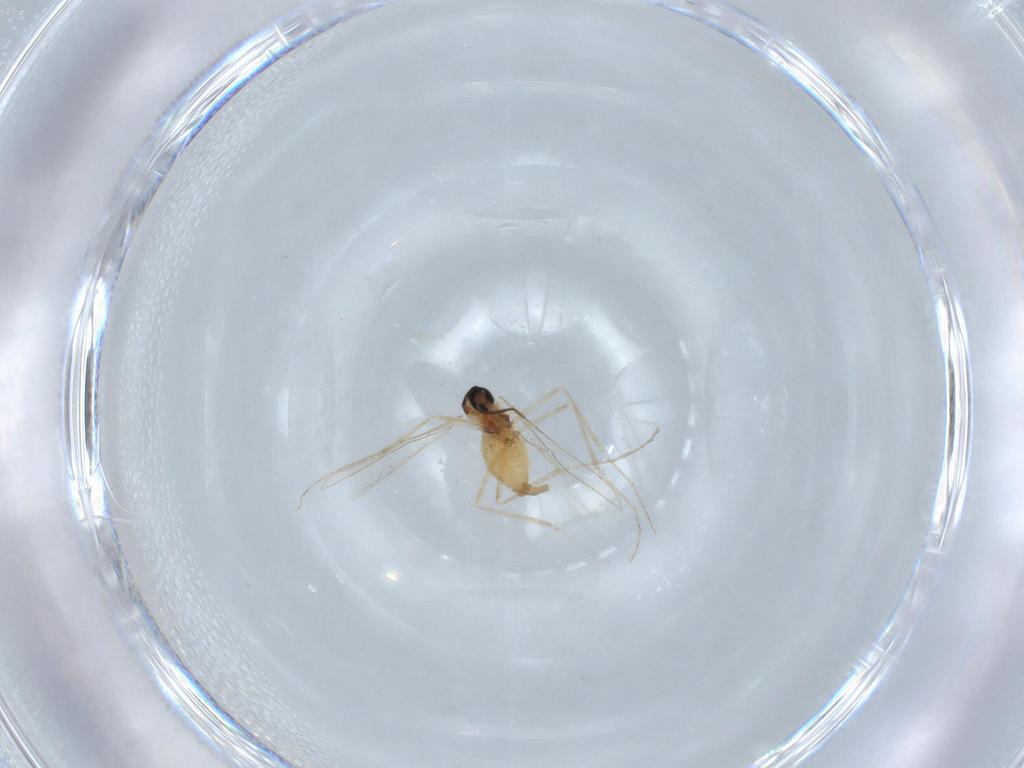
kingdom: Animalia
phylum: Arthropoda
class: Insecta
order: Diptera
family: Cecidomyiidae
